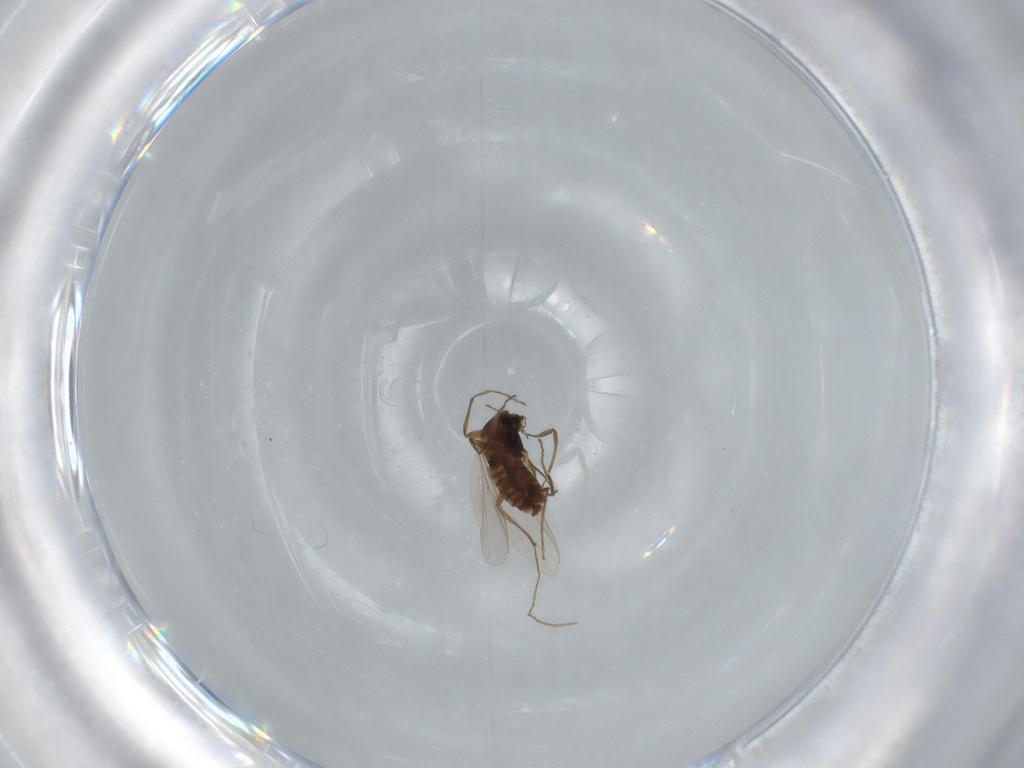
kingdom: Animalia
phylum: Arthropoda
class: Insecta
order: Diptera
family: Chironomidae
